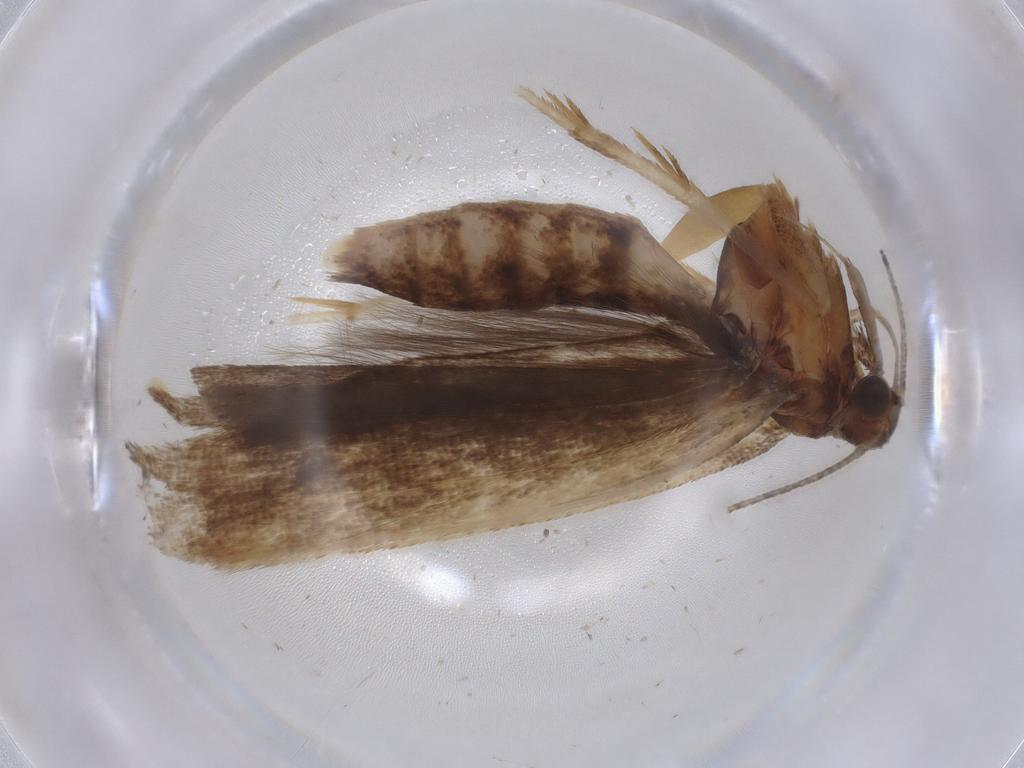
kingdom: Animalia
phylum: Arthropoda
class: Insecta
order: Lepidoptera
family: Gelechiidae
